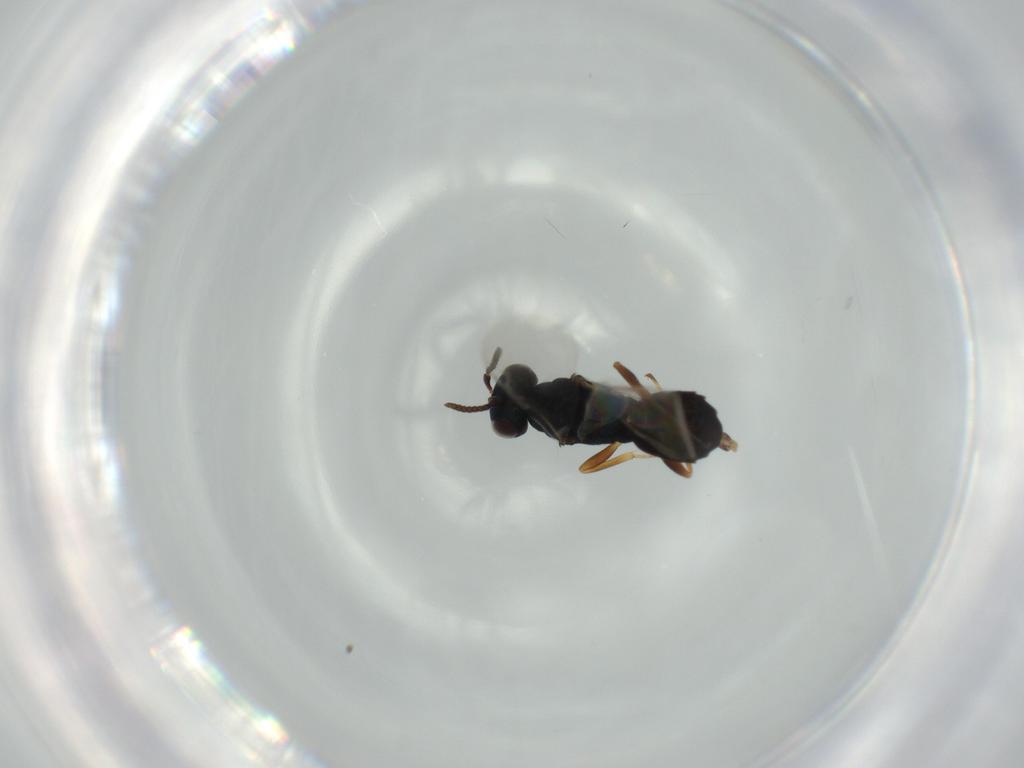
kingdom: Animalia
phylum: Arthropoda
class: Insecta
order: Hymenoptera
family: Pteromalidae
